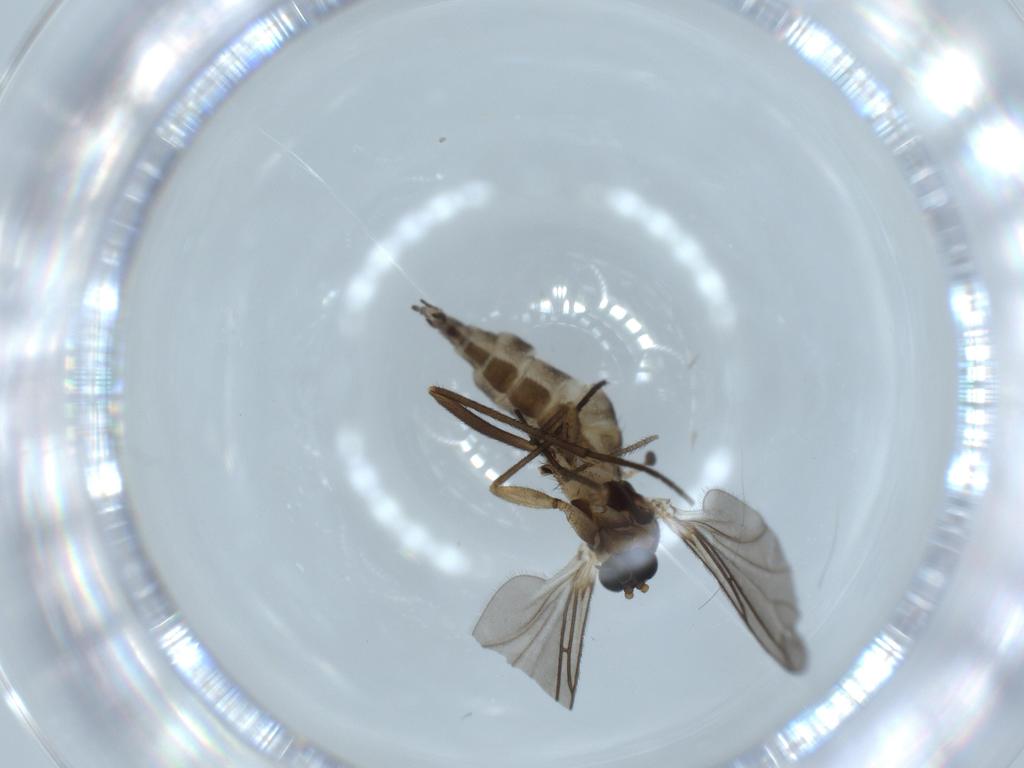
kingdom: Animalia
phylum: Arthropoda
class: Insecta
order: Diptera
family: Sciaridae
